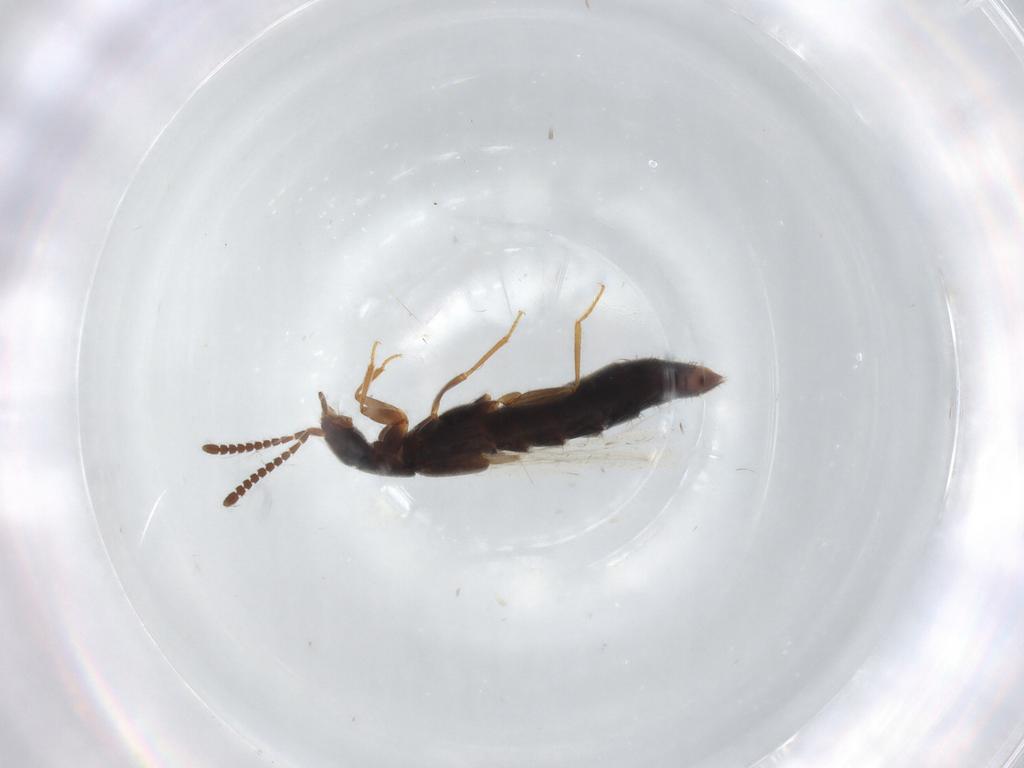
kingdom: Animalia
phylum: Arthropoda
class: Insecta
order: Coleoptera
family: Staphylinidae
